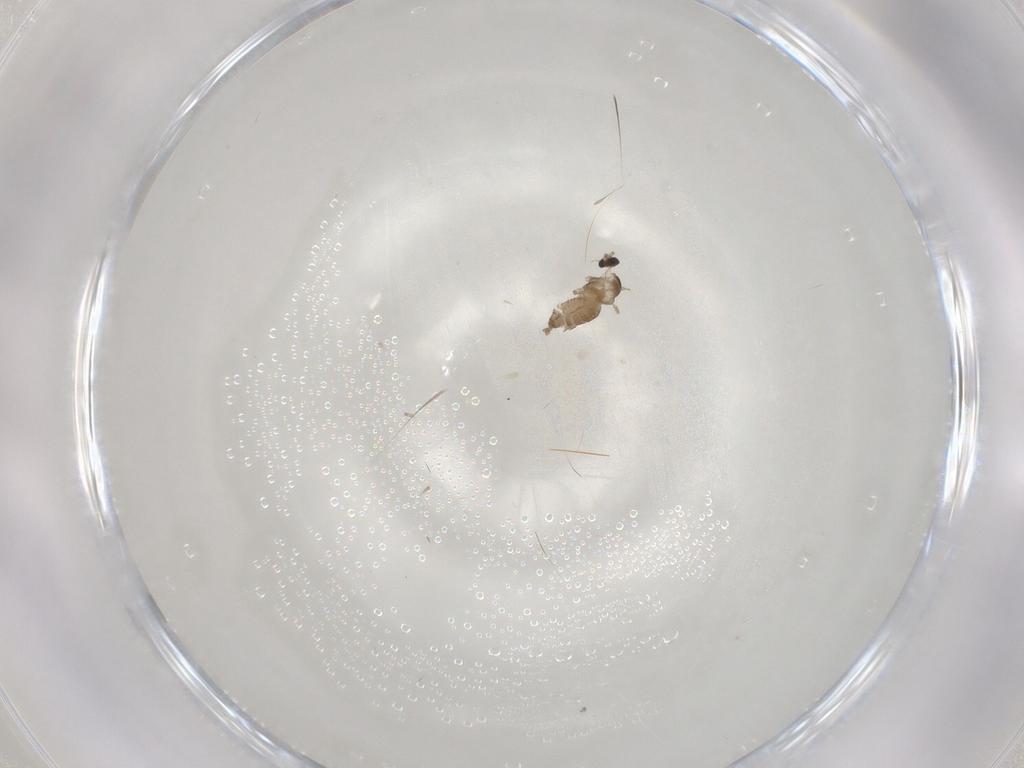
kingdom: Animalia
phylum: Arthropoda
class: Insecta
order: Diptera
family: Cecidomyiidae
